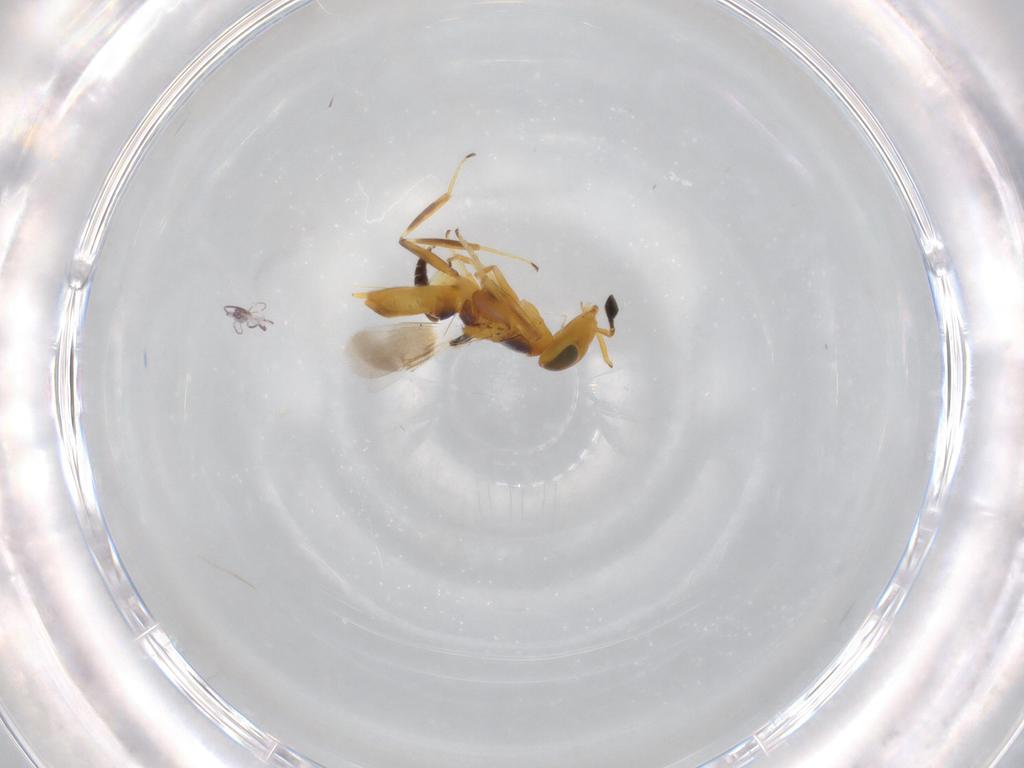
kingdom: Animalia
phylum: Arthropoda
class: Insecta
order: Hymenoptera
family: Encyrtidae
